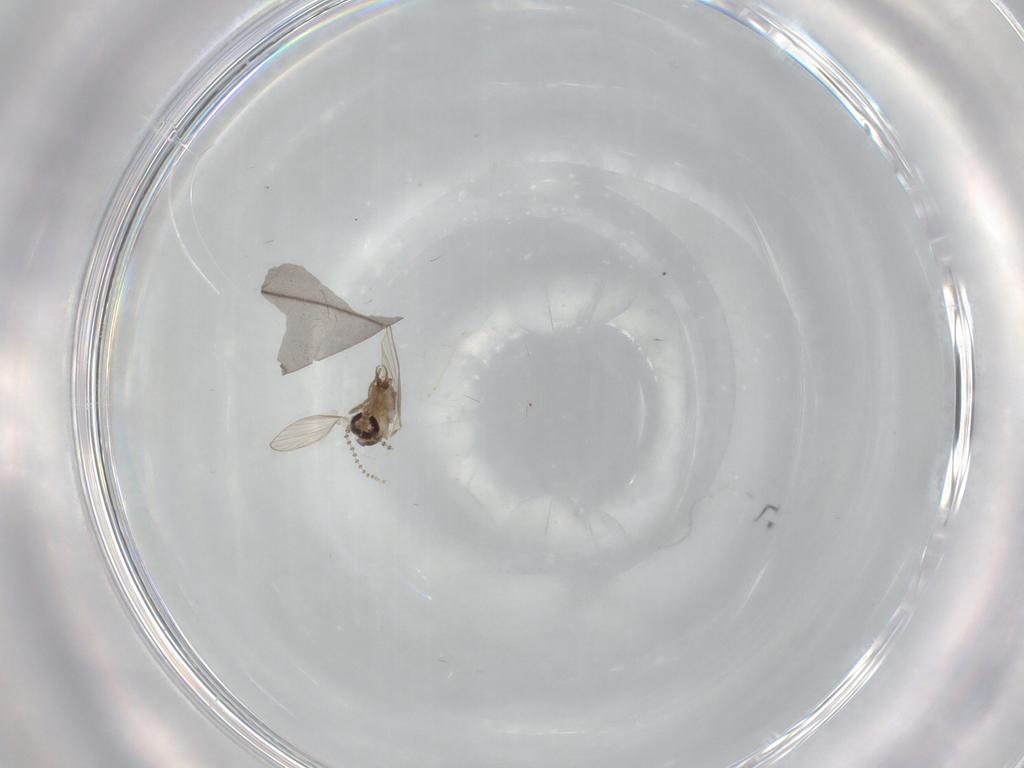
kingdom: Animalia
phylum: Arthropoda
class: Insecta
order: Diptera
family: Psychodidae
